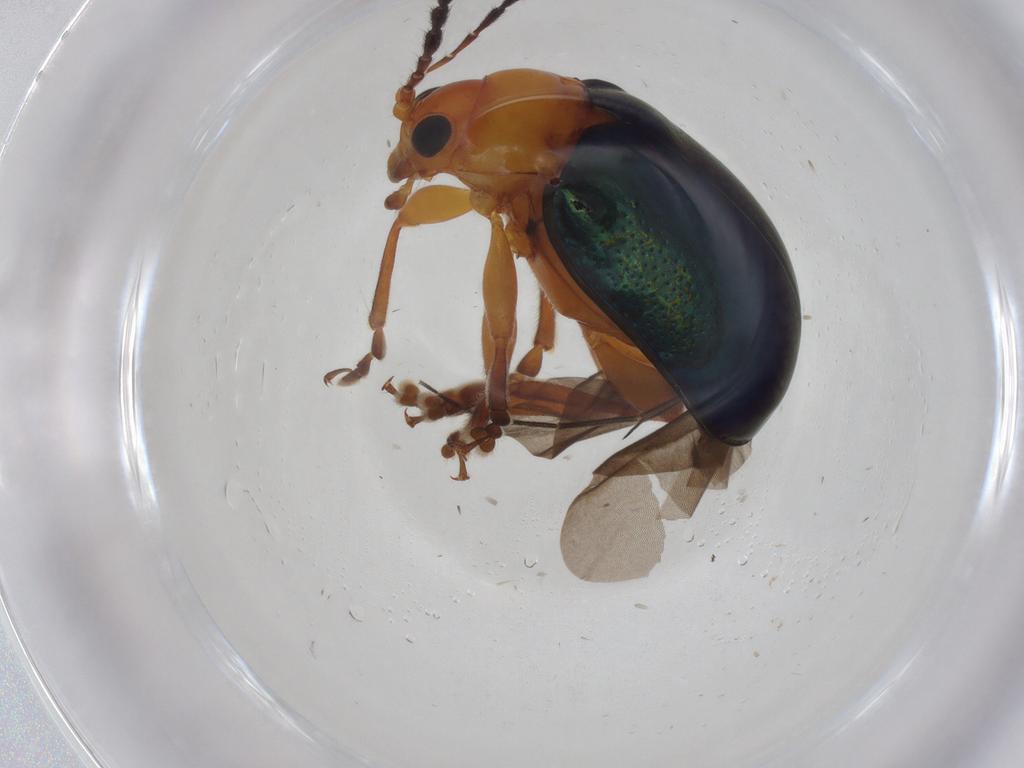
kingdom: Animalia
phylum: Arthropoda
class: Insecta
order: Coleoptera
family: Chrysomelidae
